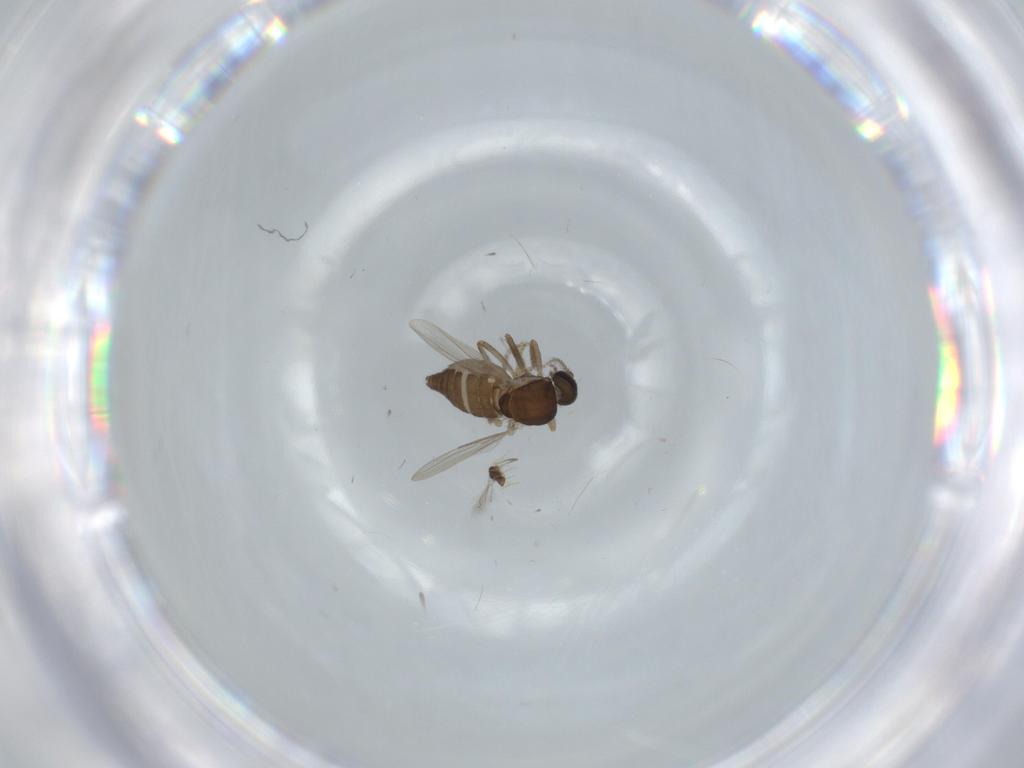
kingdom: Animalia
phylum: Arthropoda
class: Insecta
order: Diptera
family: Ceratopogonidae
